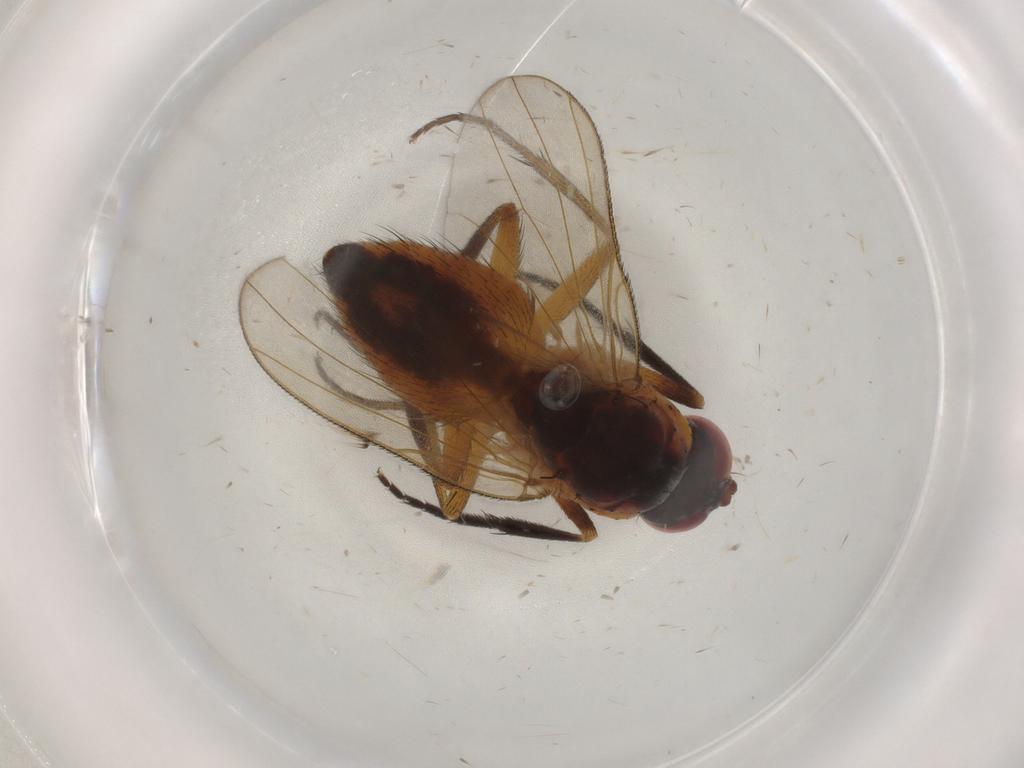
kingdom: Animalia
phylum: Arthropoda
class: Insecta
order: Diptera
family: Muscidae
